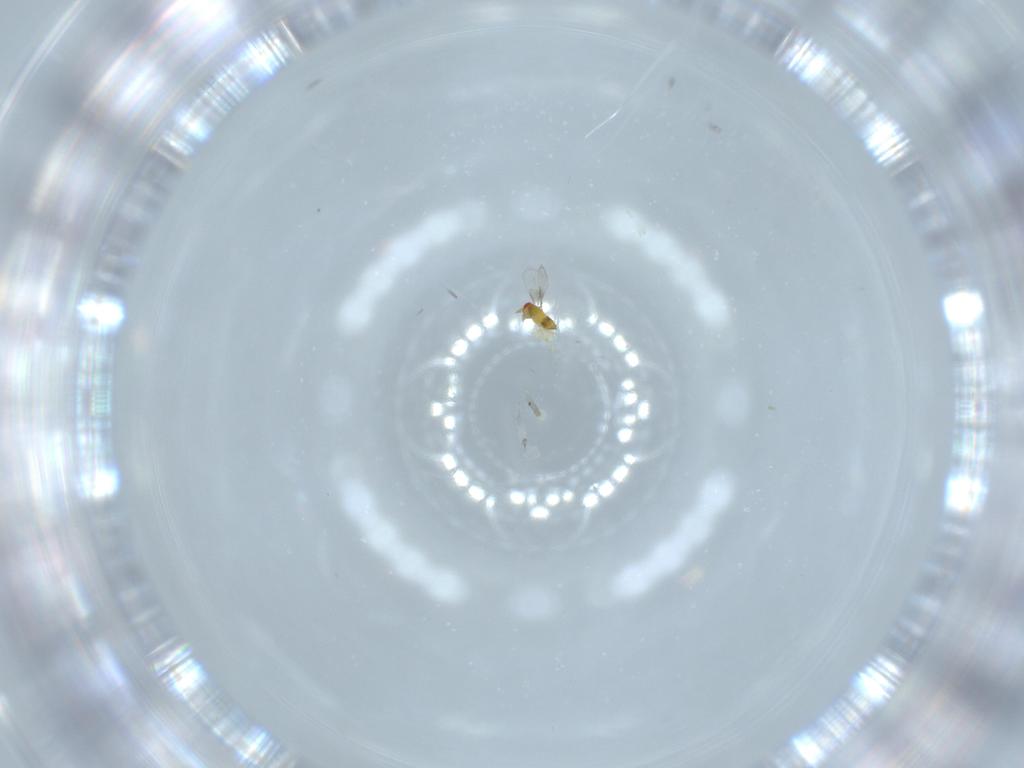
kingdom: Animalia
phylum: Arthropoda
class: Insecta
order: Hymenoptera
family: Trichogrammatidae
